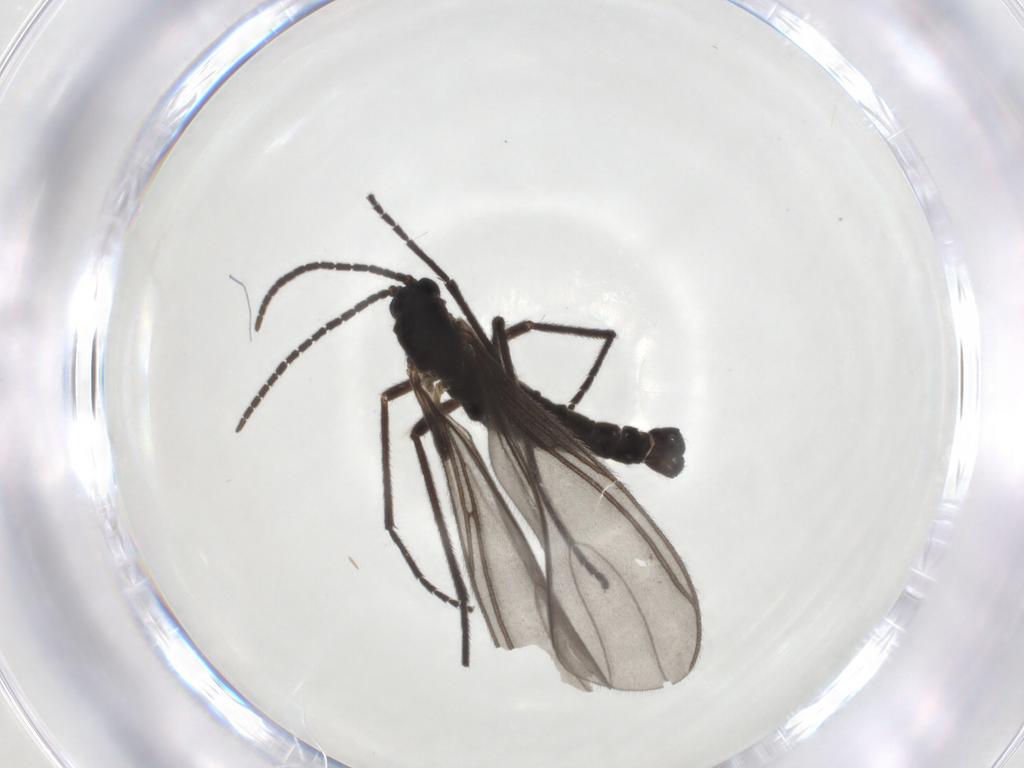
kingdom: Animalia
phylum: Arthropoda
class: Insecta
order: Diptera
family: Sciaridae
